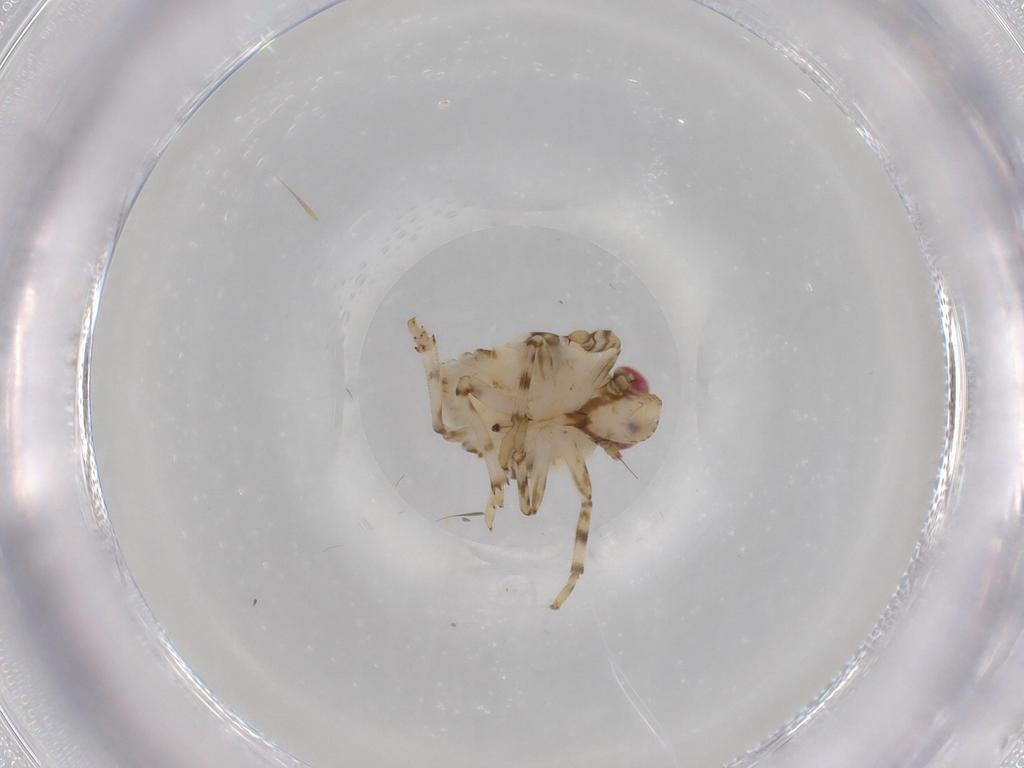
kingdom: Animalia
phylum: Arthropoda
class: Insecta
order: Hemiptera
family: Issidae
